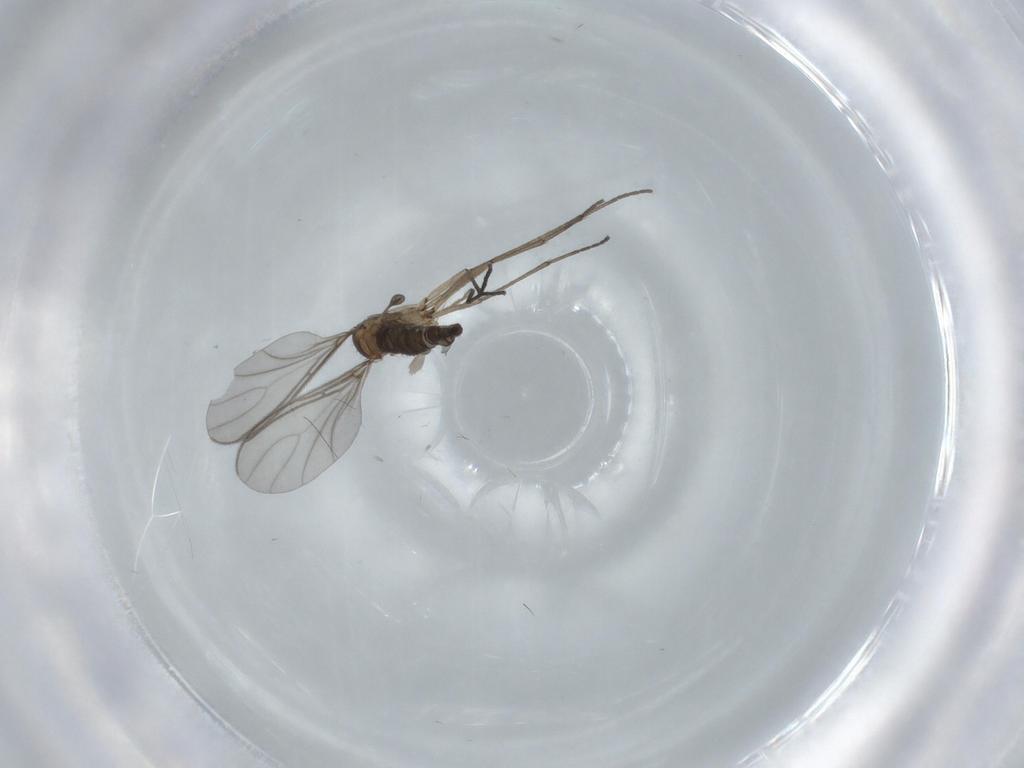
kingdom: Animalia
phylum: Arthropoda
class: Insecta
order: Diptera
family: Sciaridae
